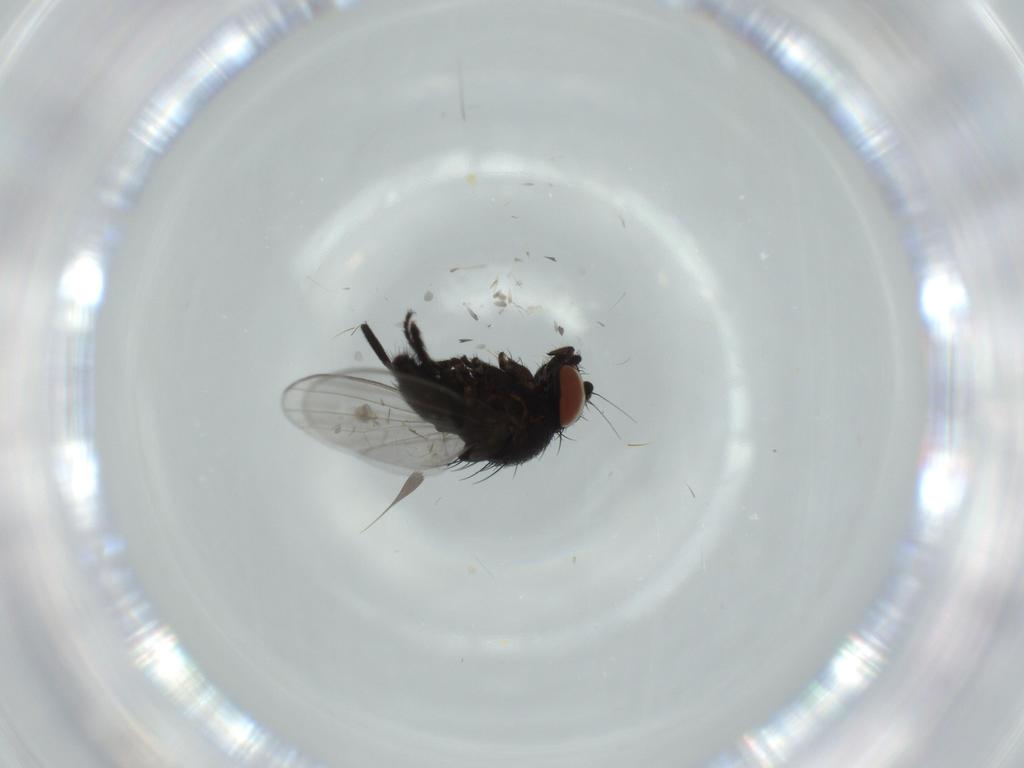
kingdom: Animalia
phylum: Arthropoda
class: Insecta
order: Diptera
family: Milichiidae
